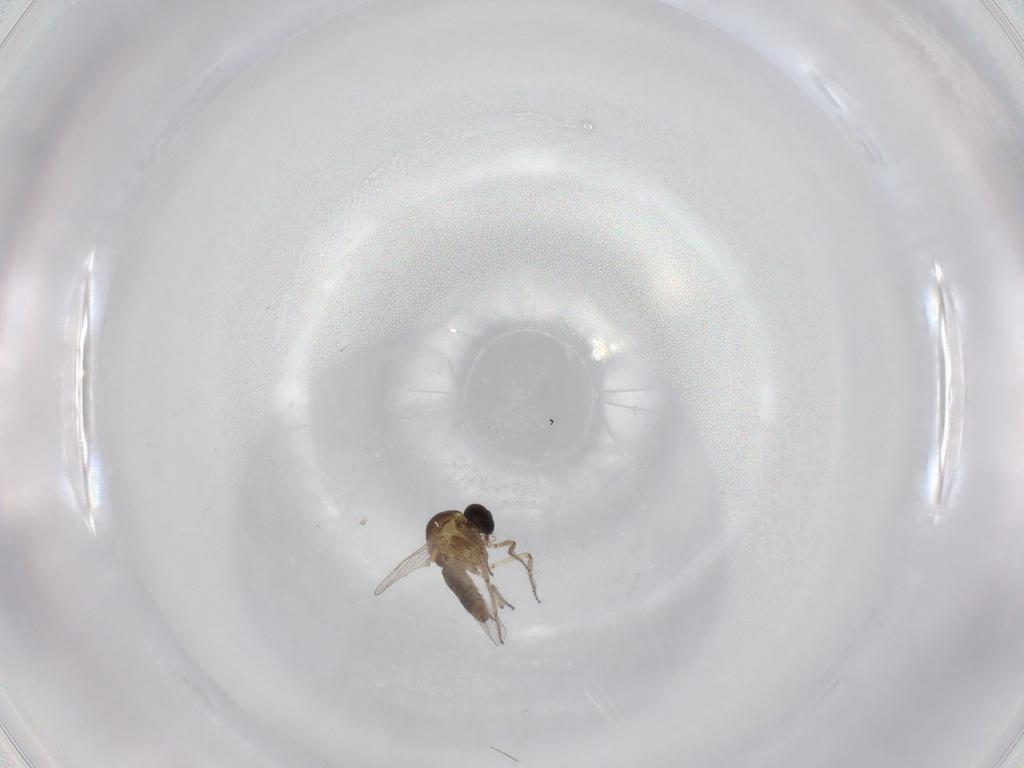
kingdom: Animalia
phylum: Arthropoda
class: Insecta
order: Diptera
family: Ceratopogonidae
